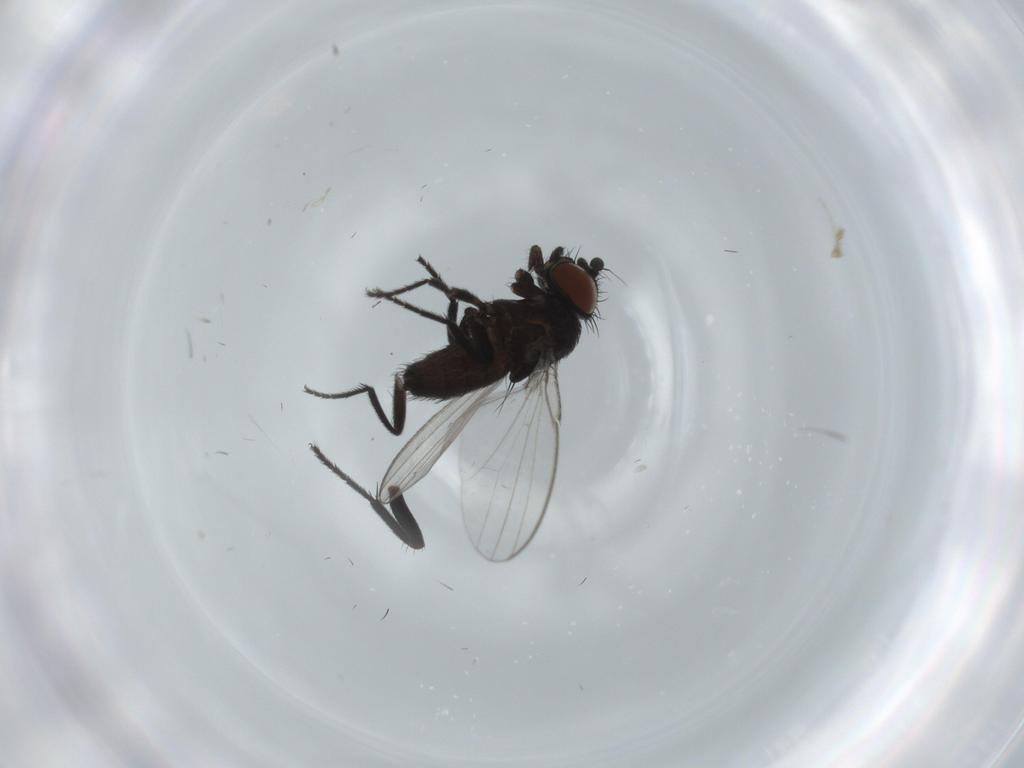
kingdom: Animalia
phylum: Arthropoda
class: Insecta
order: Diptera
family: Milichiidae
